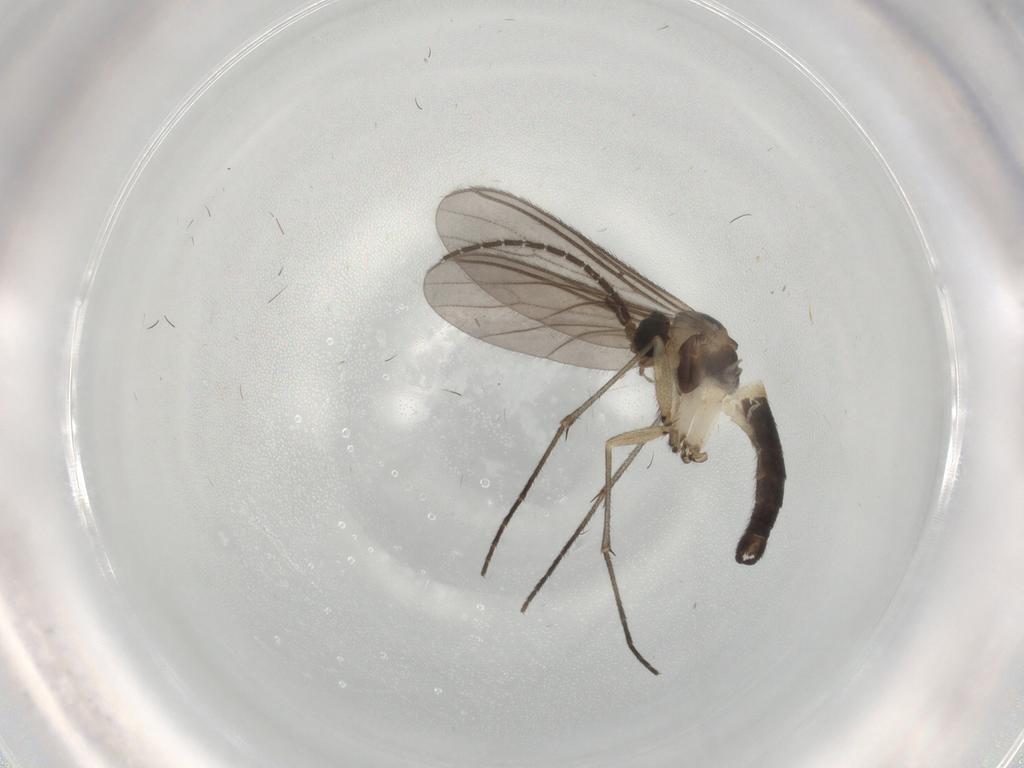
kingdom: Animalia
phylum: Arthropoda
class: Insecta
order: Diptera
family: Sciaridae
